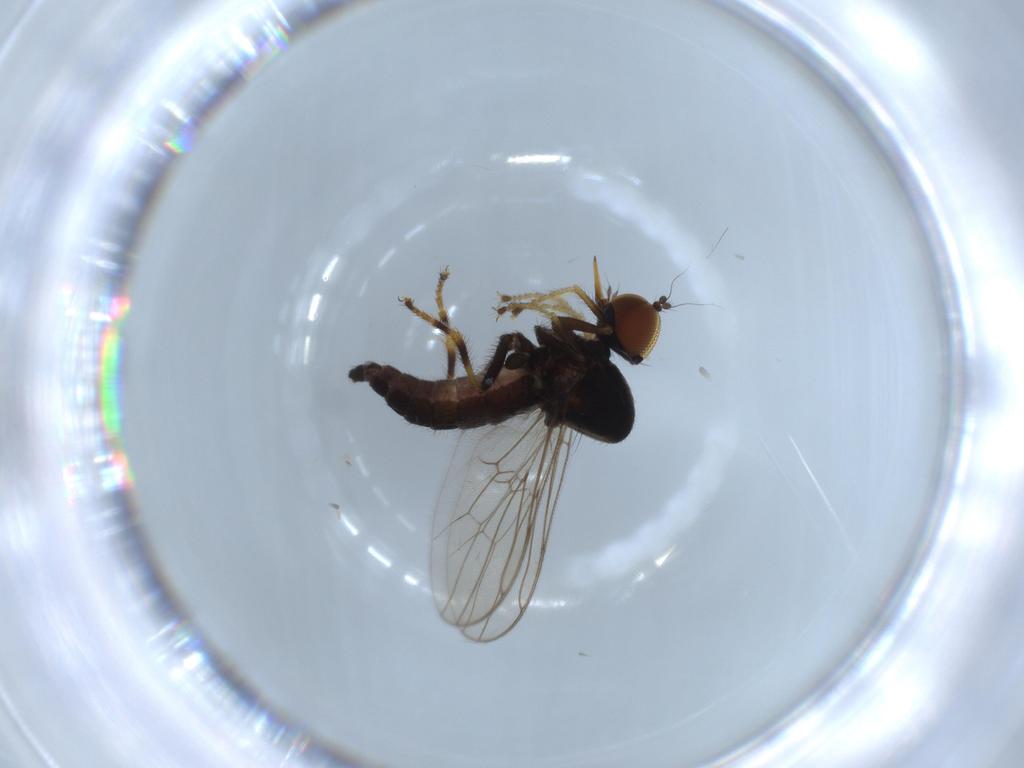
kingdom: Animalia
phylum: Arthropoda
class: Insecta
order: Diptera
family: Hybotidae
